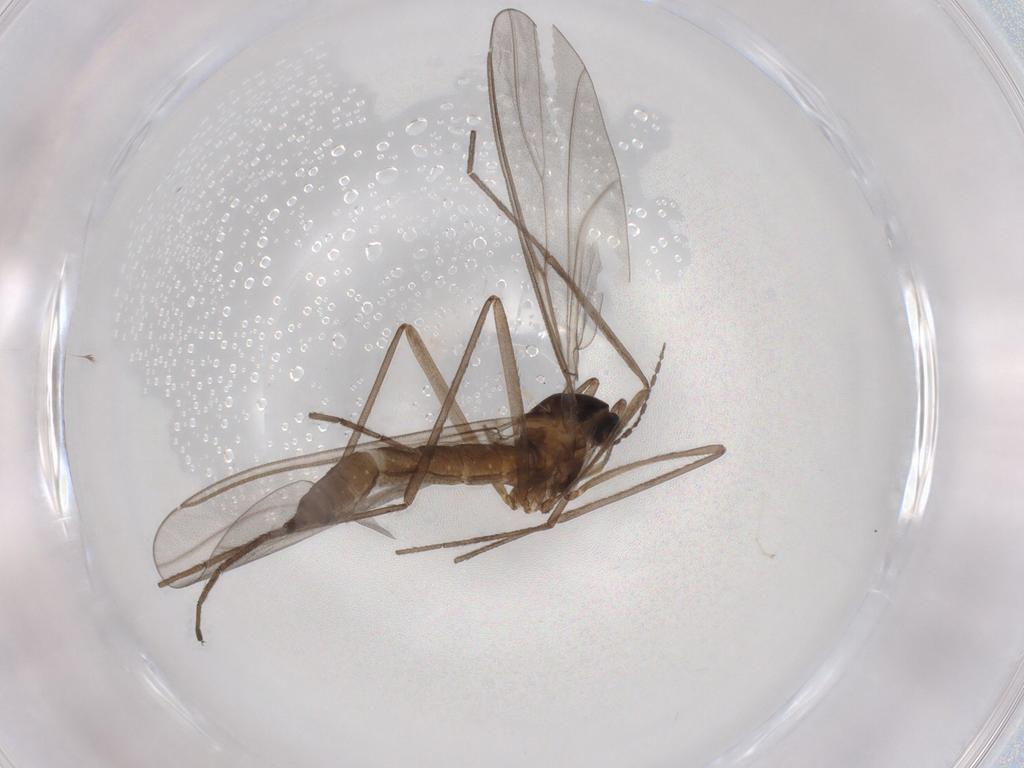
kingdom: Animalia
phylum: Arthropoda
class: Insecta
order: Diptera
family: Cecidomyiidae
